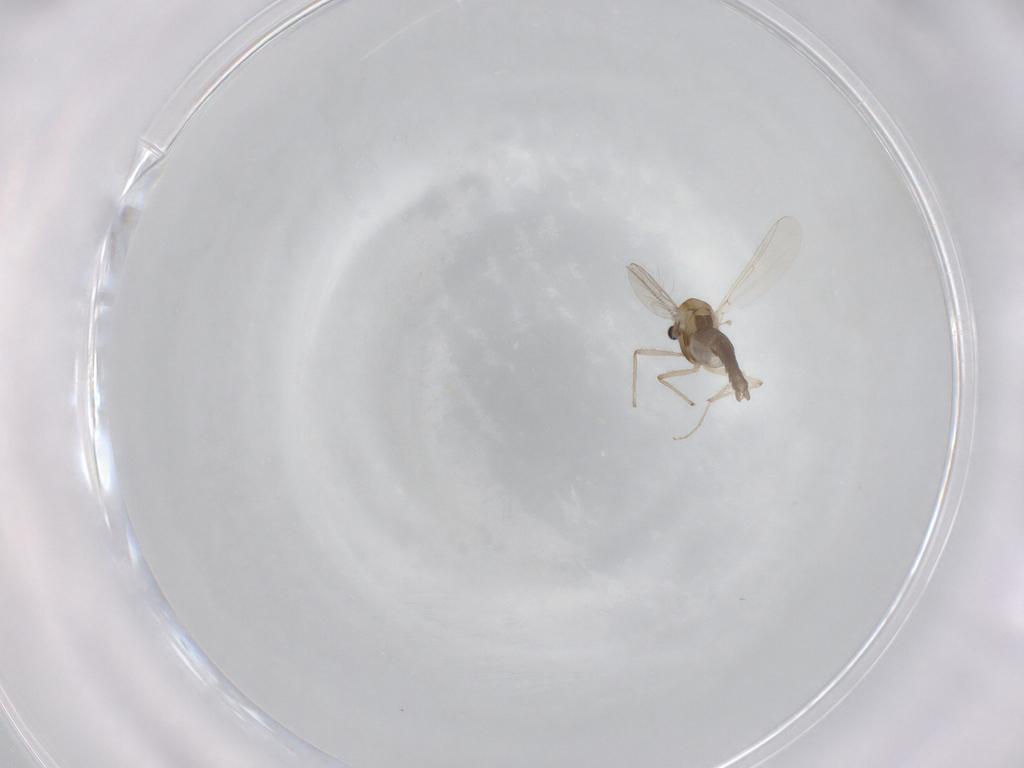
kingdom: Animalia
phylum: Arthropoda
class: Insecta
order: Diptera
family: Chironomidae
